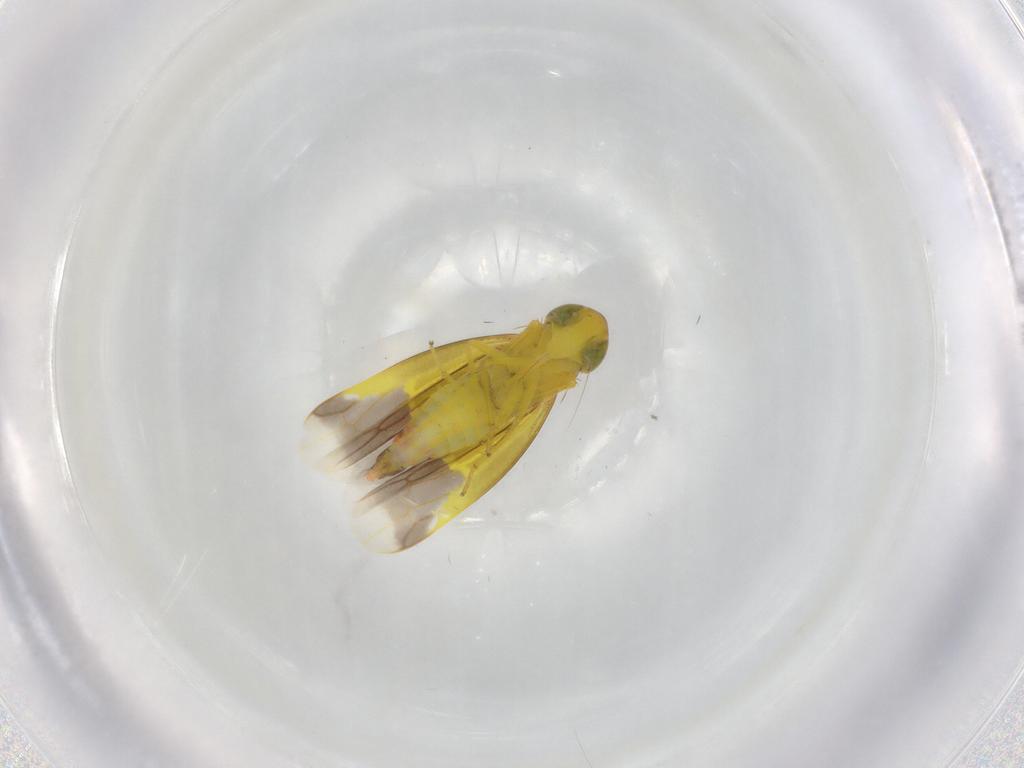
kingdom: Animalia
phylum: Arthropoda
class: Insecta
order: Hemiptera
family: Cicadellidae
